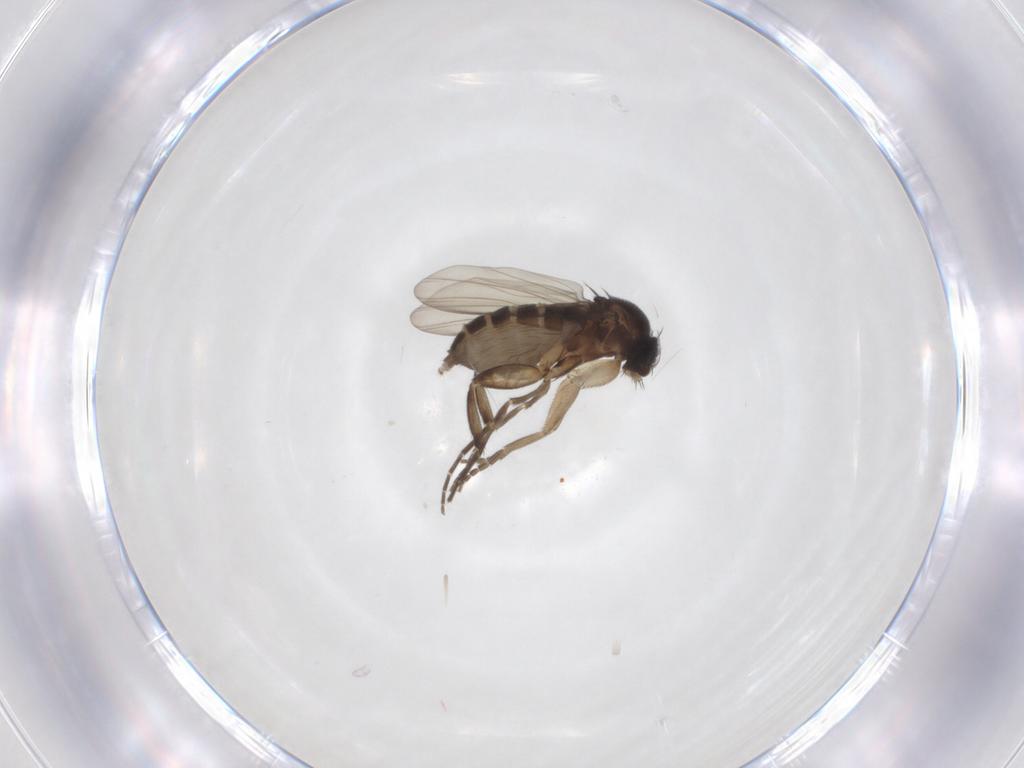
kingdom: Animalia
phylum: Arthropoda
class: Insecta
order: Diptera
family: Phoridae
